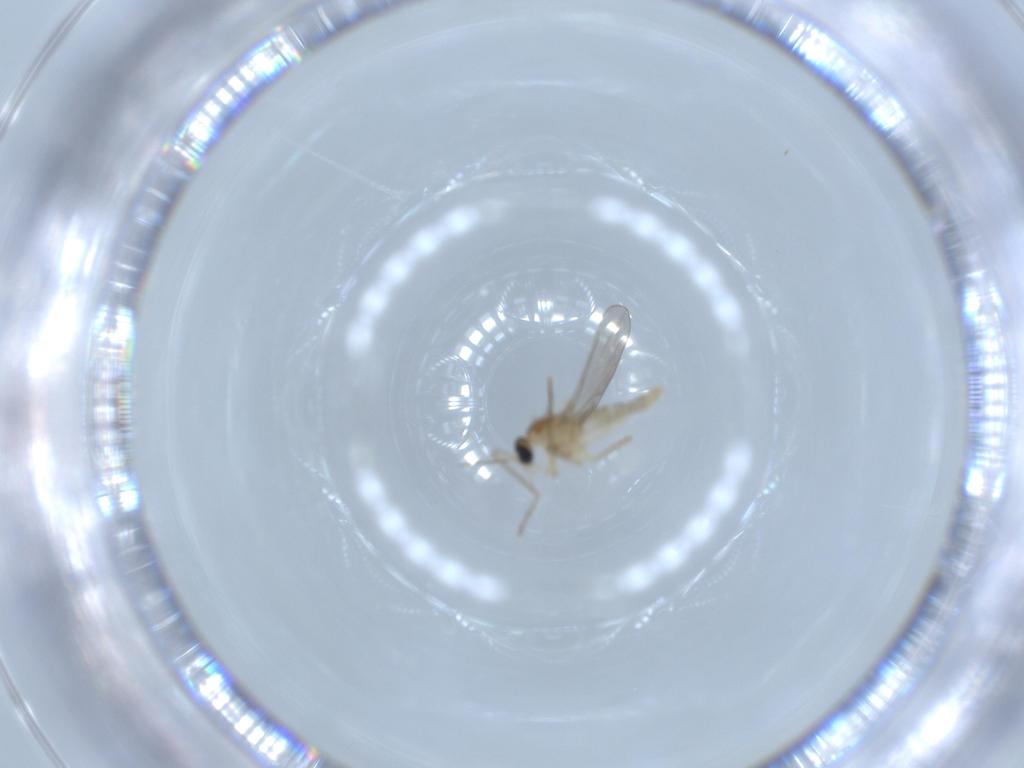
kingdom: Animalia
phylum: Arthropoda
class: Insecta
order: Diptera
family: Cecidomyiidae
